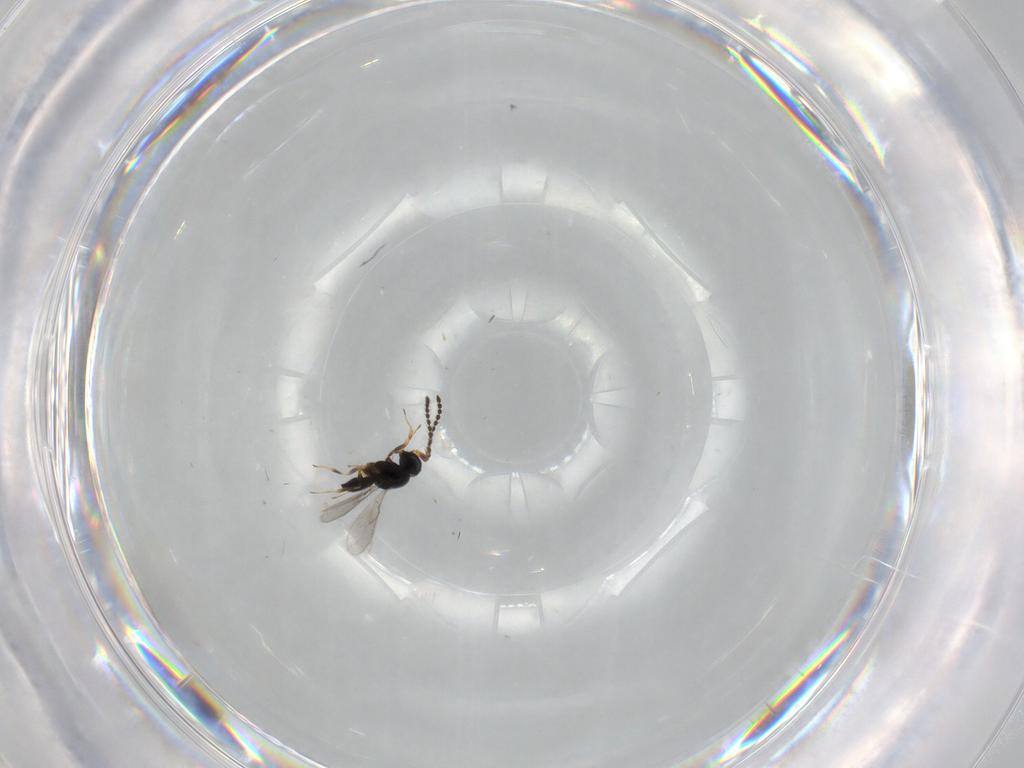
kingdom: Animalia
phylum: Arthropoda
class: Insecta
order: Hymenoptera
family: Scelionidae
